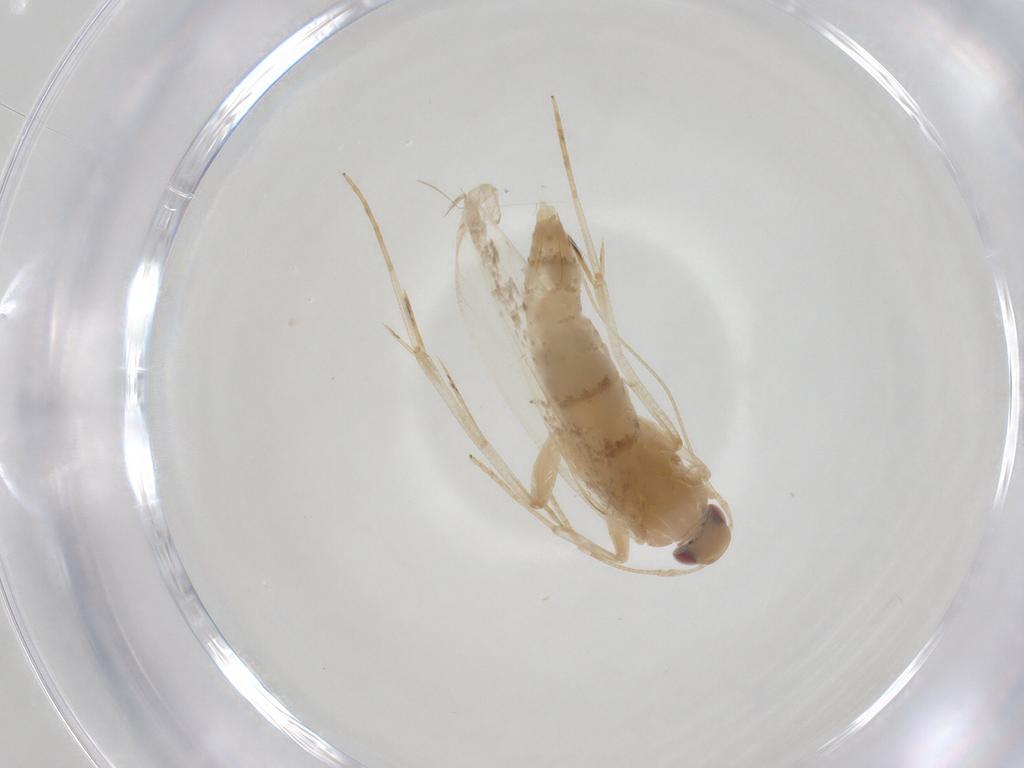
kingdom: Animalia
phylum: Arthropoda
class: Insecta
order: Lepidoptera
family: Erebidae
